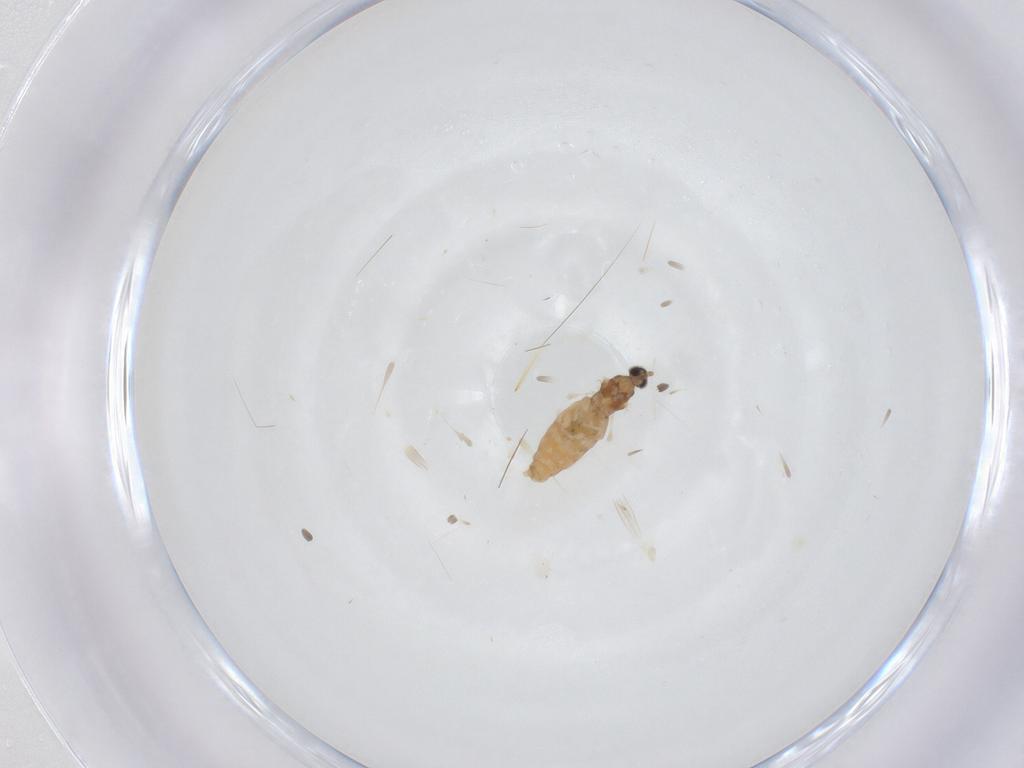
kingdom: Animalia
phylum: Arthropoda
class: Insecta
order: Diptera
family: Cecidomyiidae
